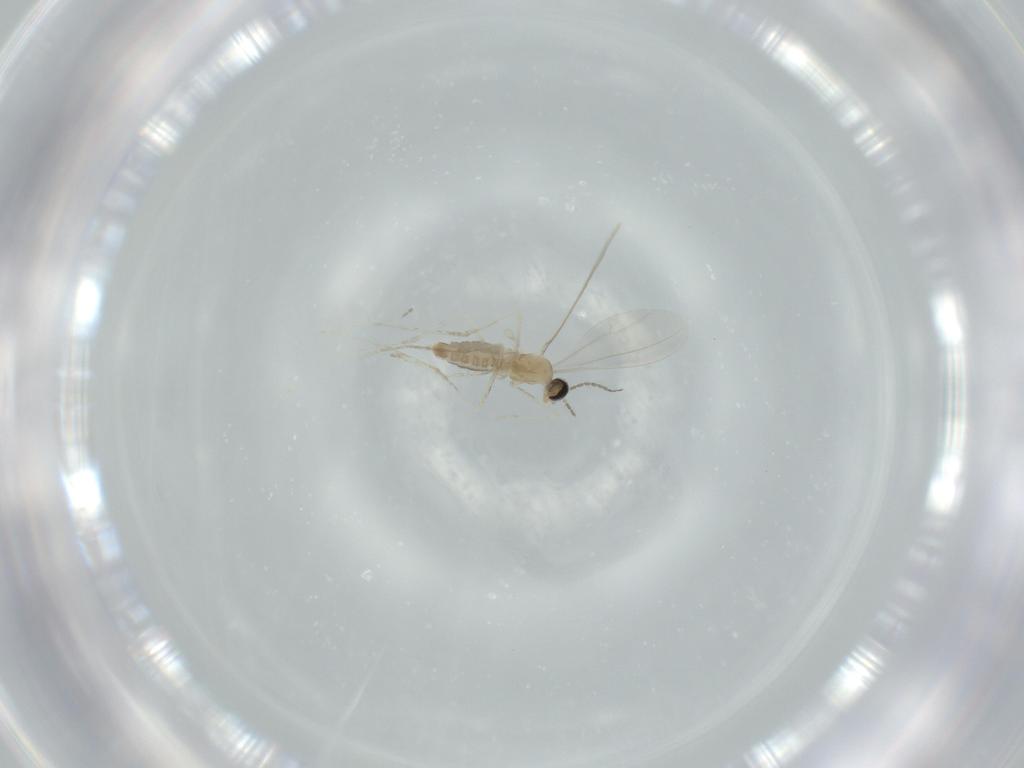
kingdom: Animalia
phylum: Arthropoda
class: Insecta
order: Diptera
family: Cecidomyiidae
